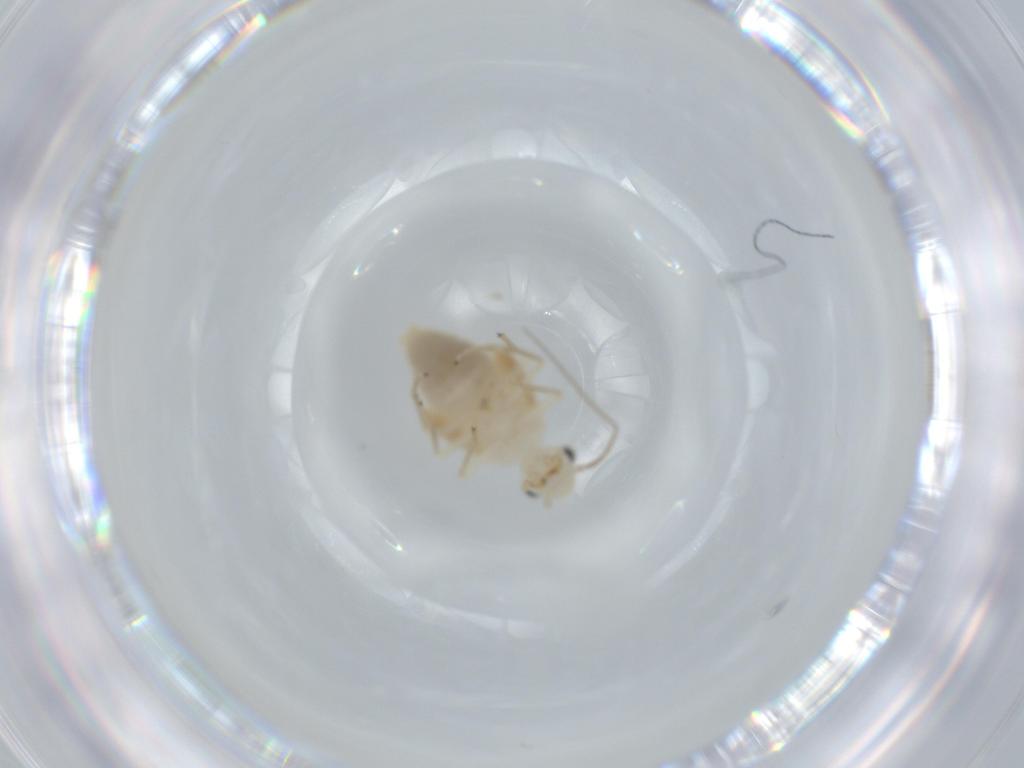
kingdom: Animalia
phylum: Arthropoda
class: Insecta
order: Psocodea
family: Caeciliusidae
